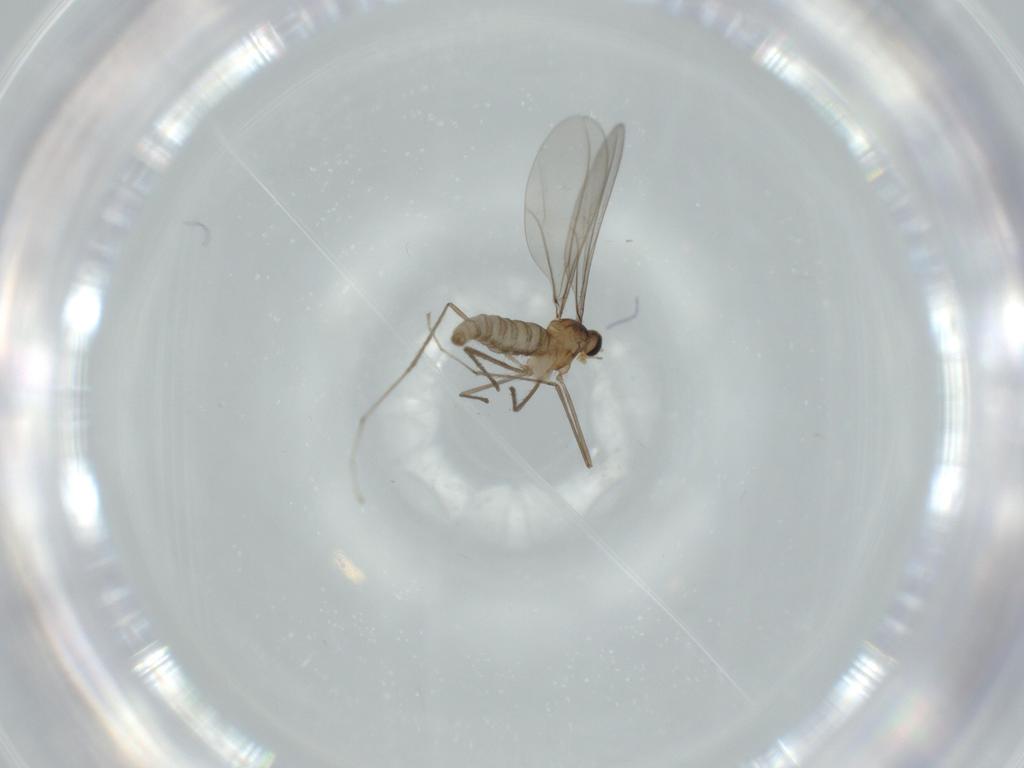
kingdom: Animalia
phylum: Arthropoda
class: Insecta
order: Diptera
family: Cecidomyiidae
